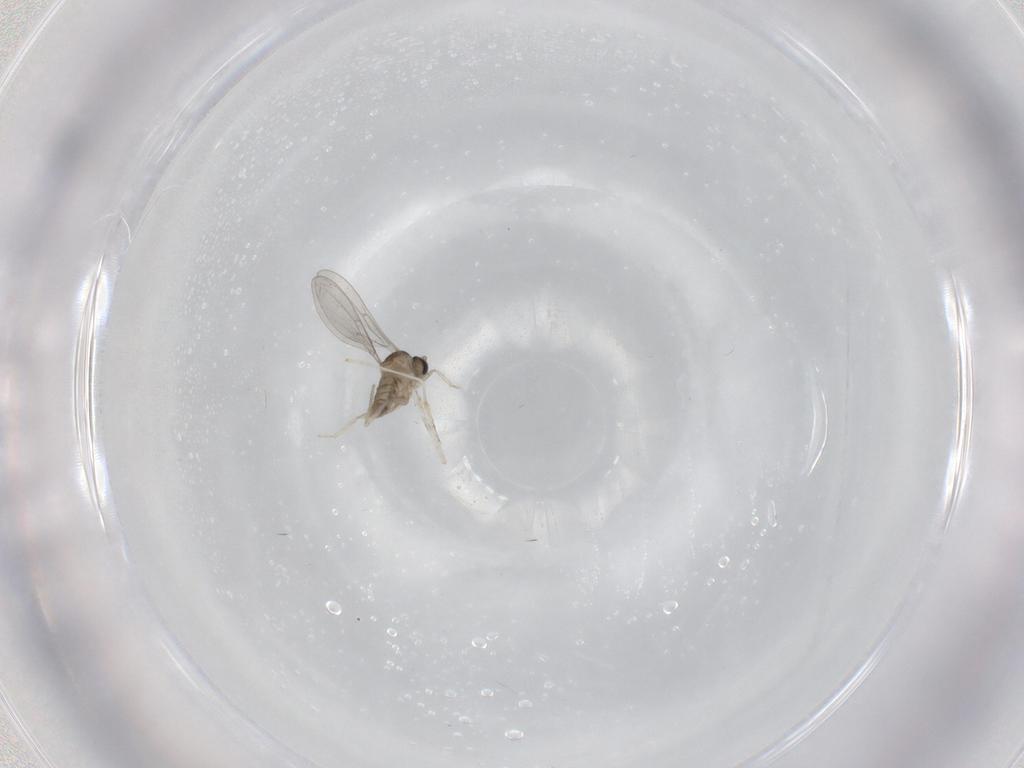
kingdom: Animalia
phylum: Arthropoda
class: Insecta
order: Diptera
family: Cecidomyiidae
